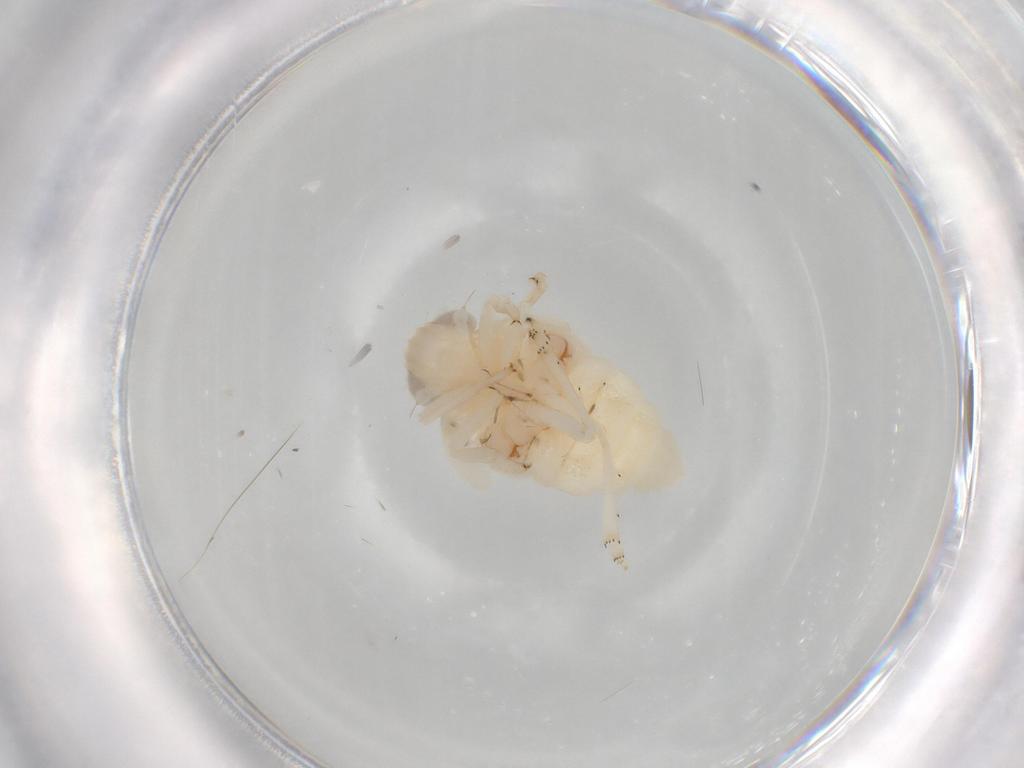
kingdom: Animalia
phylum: Arthropoda
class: Insecta
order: Hemiptera
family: Nogodinidae
